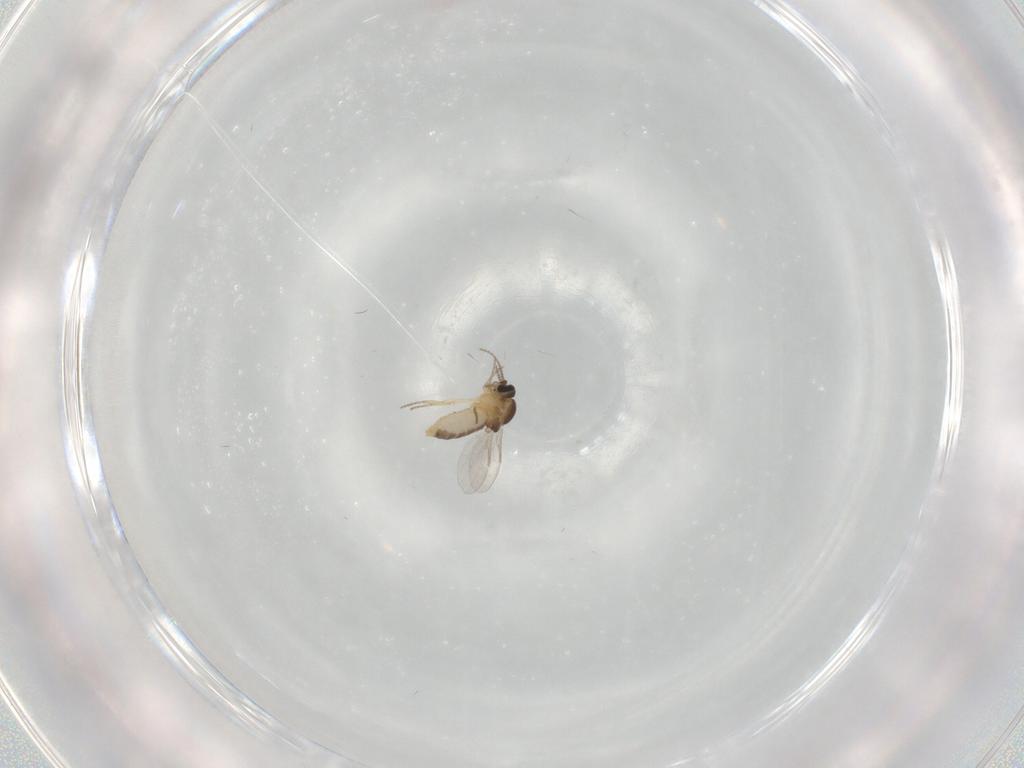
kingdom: Animalia
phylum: Arthropoda
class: Insecta
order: Diptera
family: Ceratopogonidae
